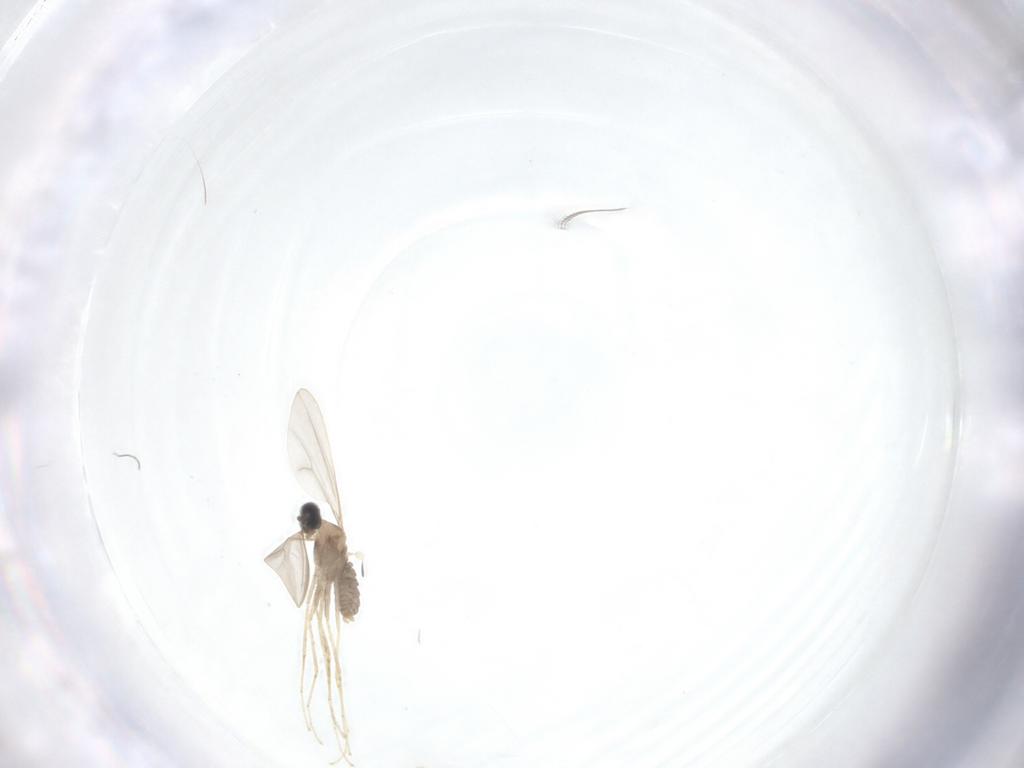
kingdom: Animalia
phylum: Arthropoda
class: Insecta
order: Diptera
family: Cecidomyiidae
